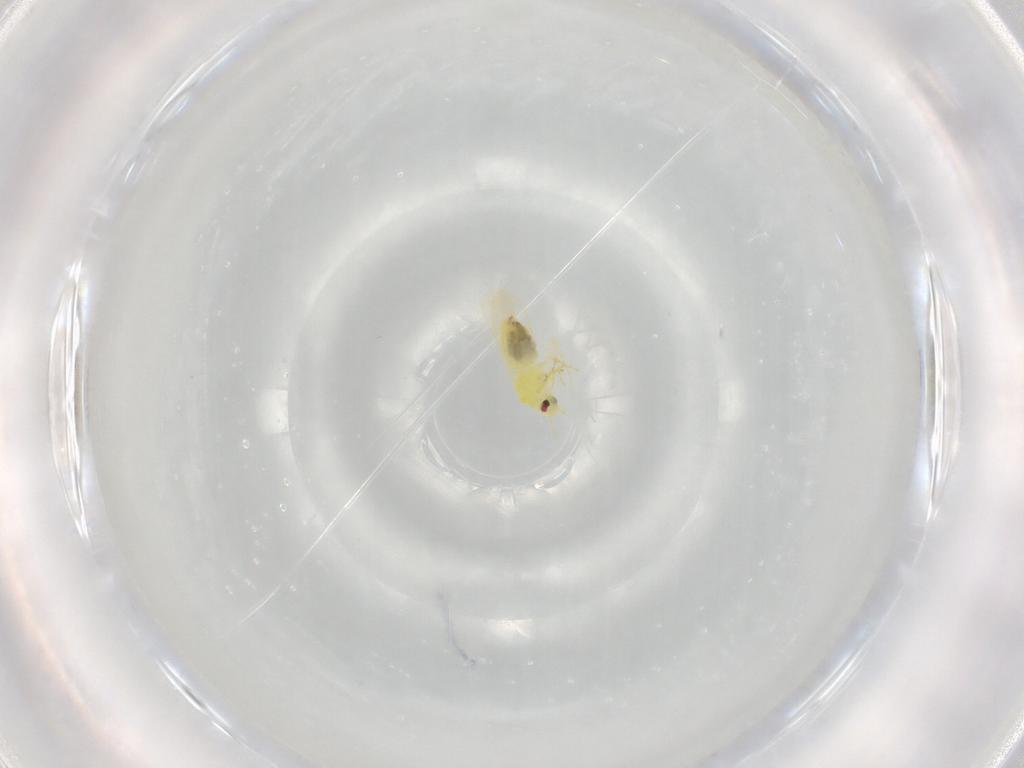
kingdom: Animalia
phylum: Arthropoda
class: Insecta
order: Hemiptera
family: Aleyrodidae
